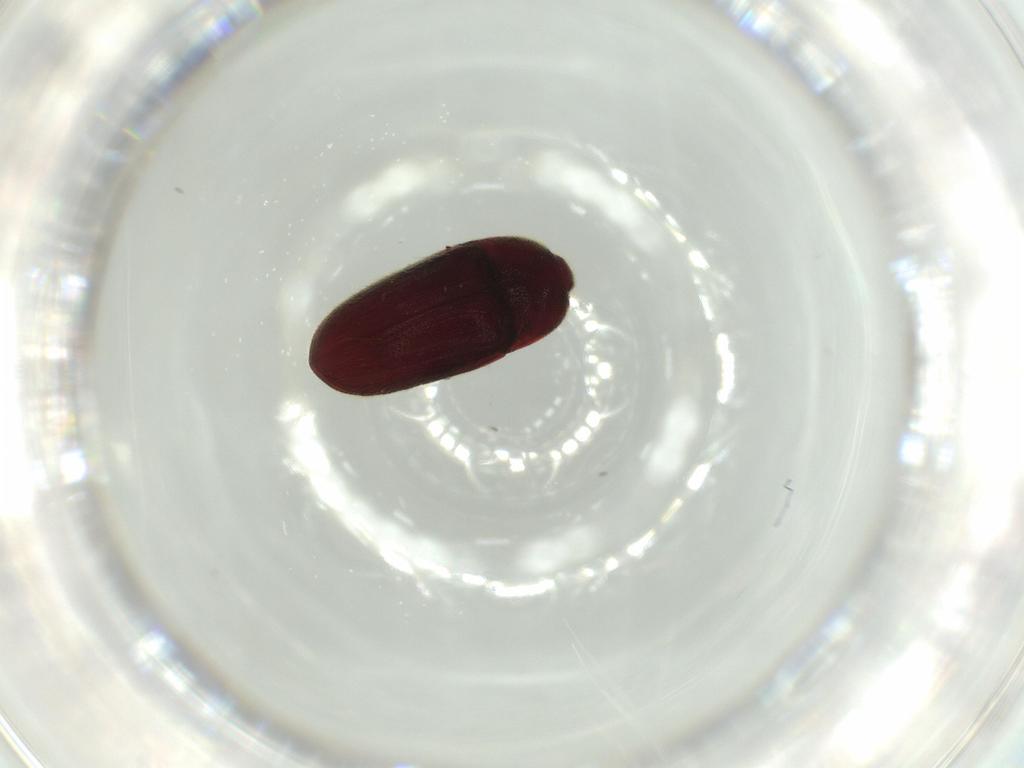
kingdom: Animalia
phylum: Arthropoda
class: Insecta
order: Coleoptera
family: Throscidae
